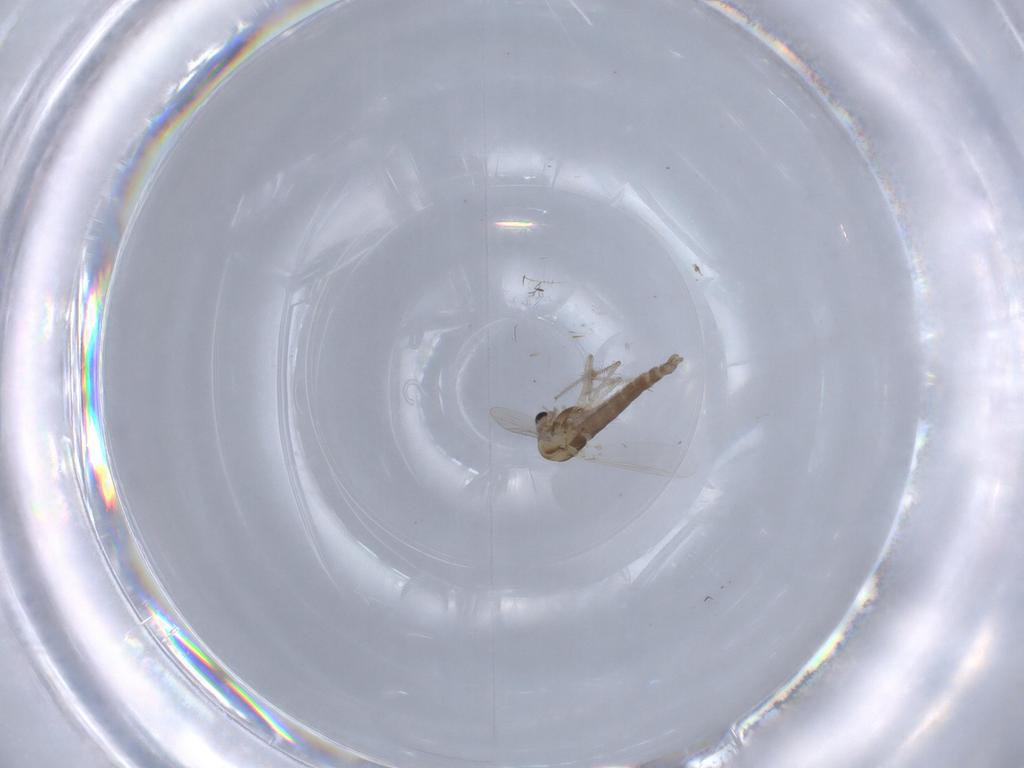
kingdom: Animalia
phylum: Arthropoda
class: Insecta
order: Diptera
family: Chironomidae
